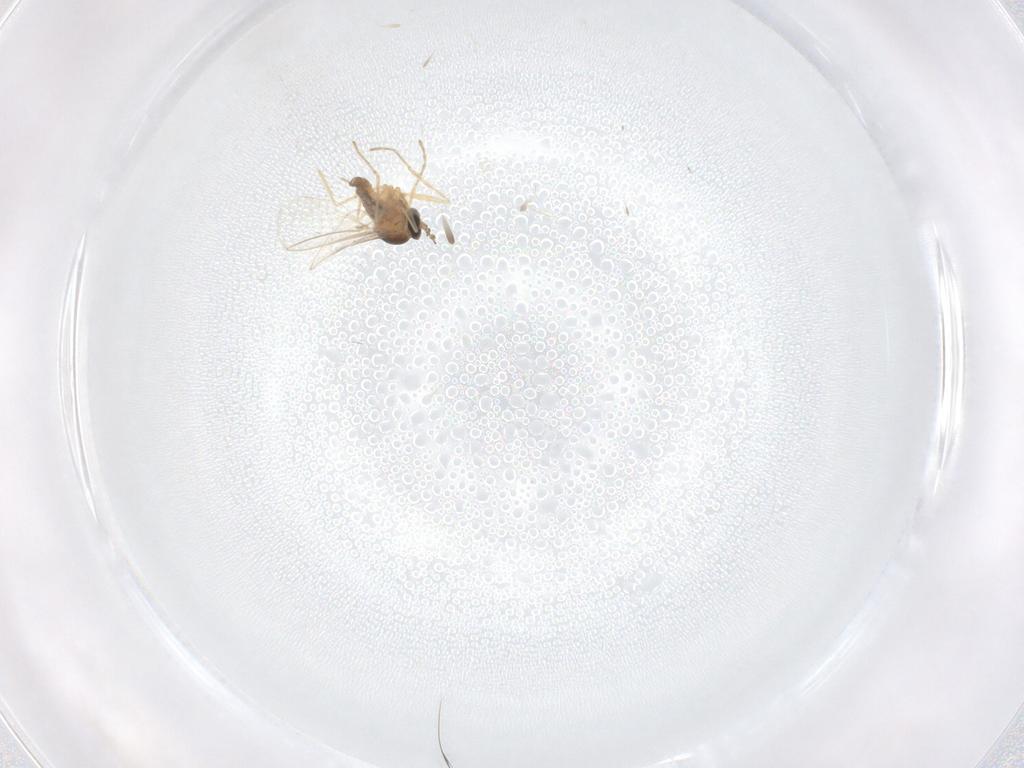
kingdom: Animalia
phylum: Arthropoda
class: Insecta
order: Diptera
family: Cecidomyiidae
